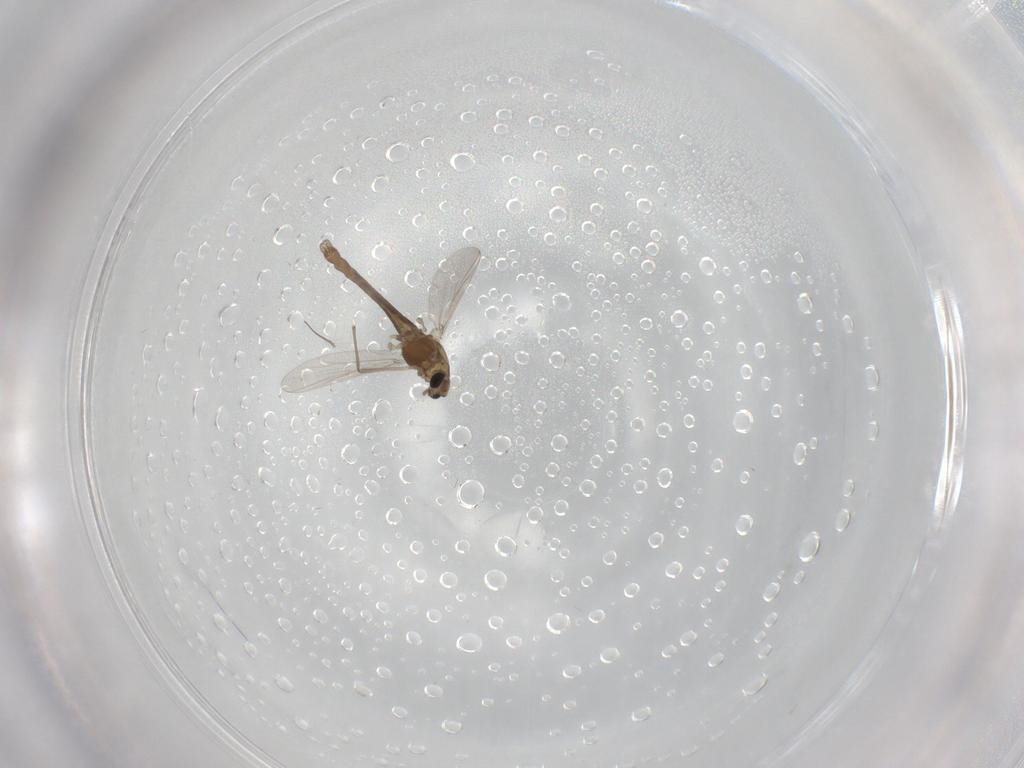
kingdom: Animalia
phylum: Arthropoda
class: Insecta
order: Diptera
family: Chironomidae
